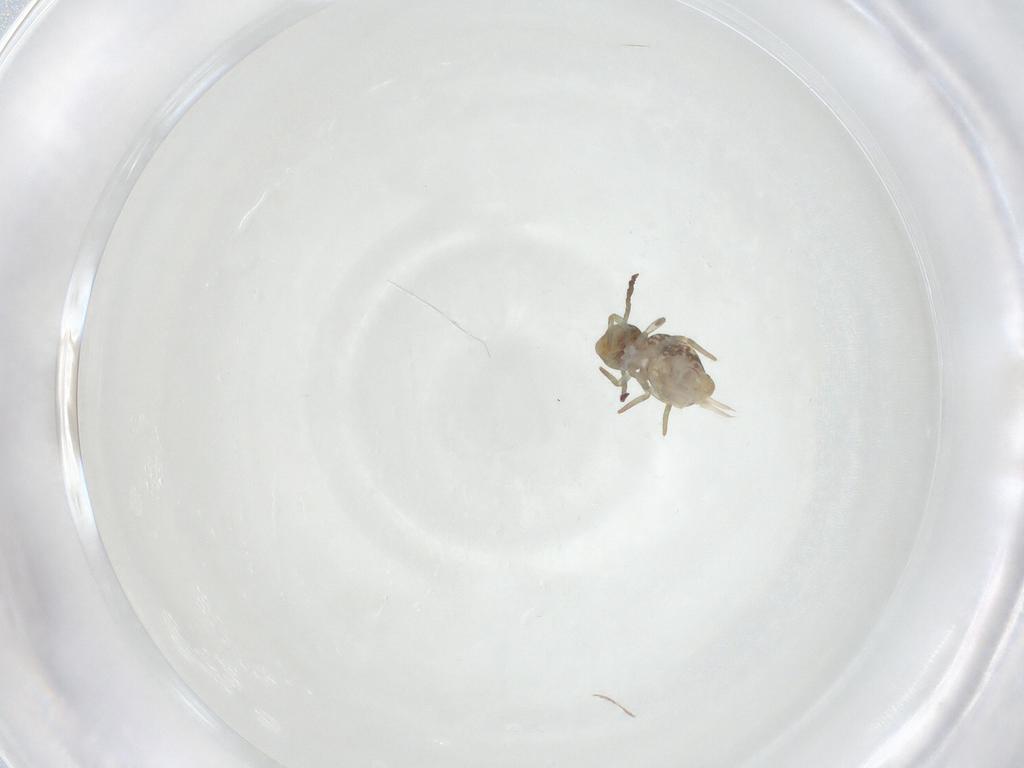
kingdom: Animalia
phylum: Arthropoda
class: Collembola
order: Symphypleona
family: Dicyrtomidae
